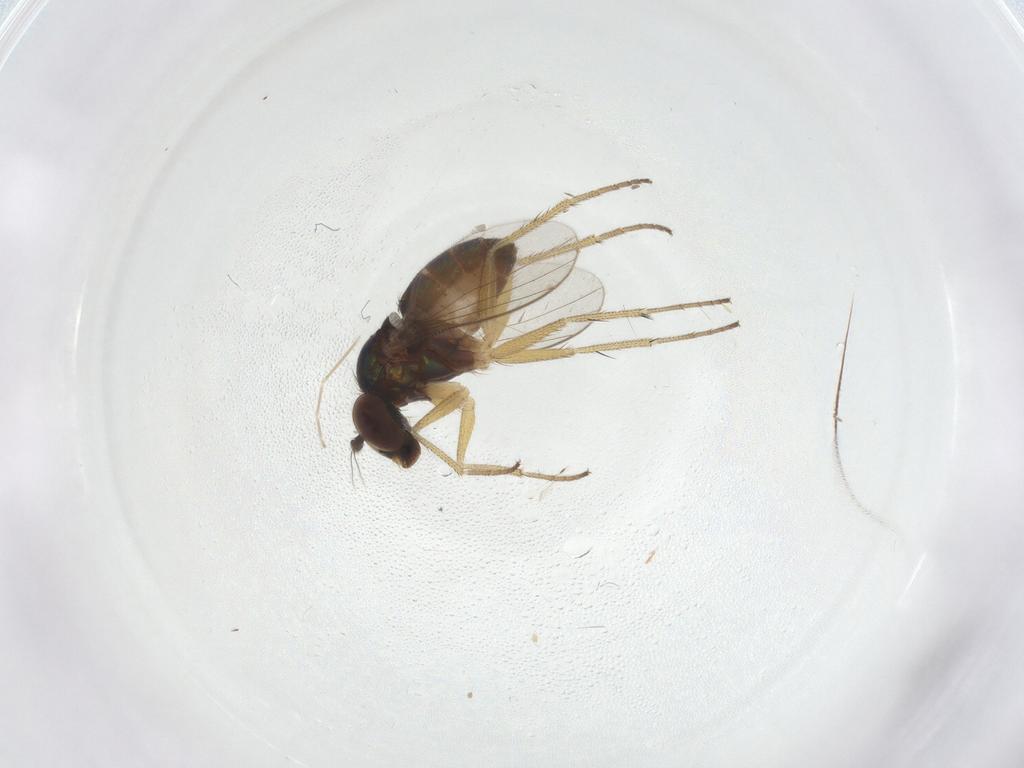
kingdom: Animalia
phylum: Arthropoda
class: Insecta
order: Diptera
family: Cecidomyiidae
